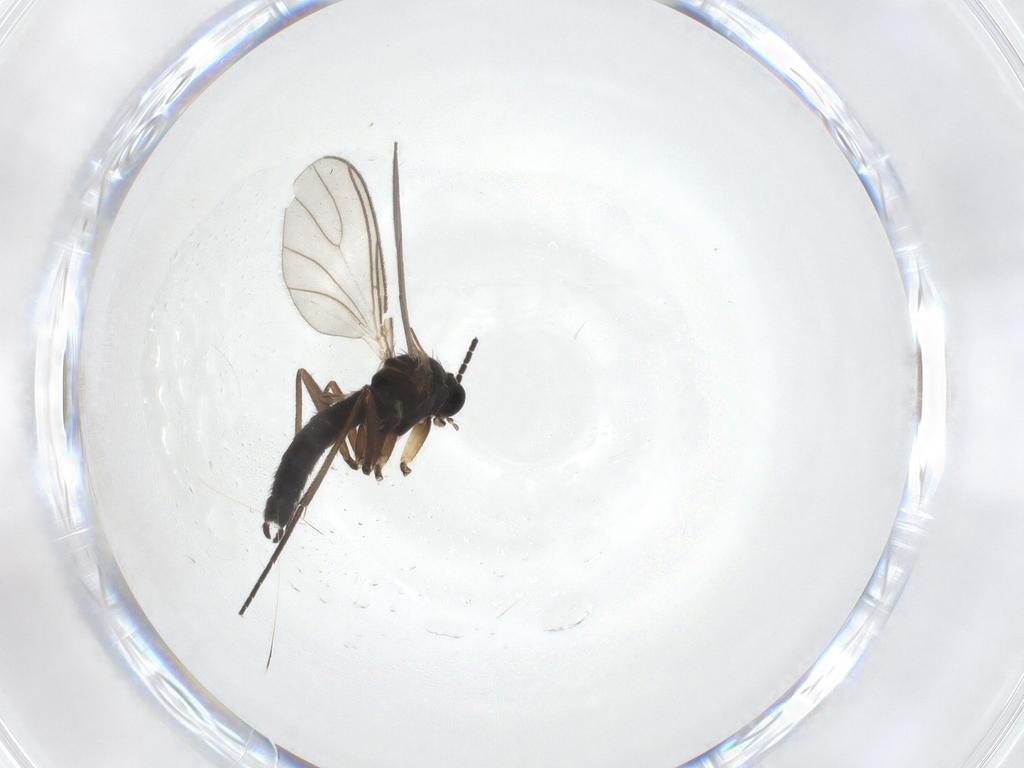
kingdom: Animalia
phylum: Arthropoda
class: Insecta
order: Diptera
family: Sciaridae
